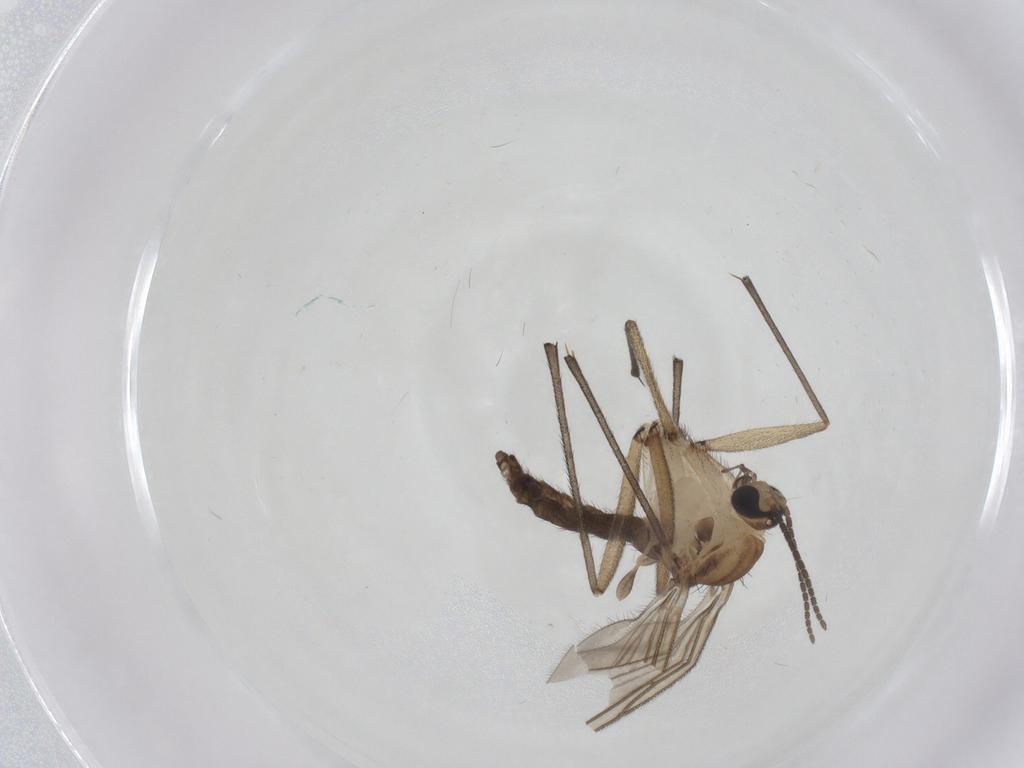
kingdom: Animalia
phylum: Arthropoda
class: Insecta
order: Diptera
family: Sciaridae
